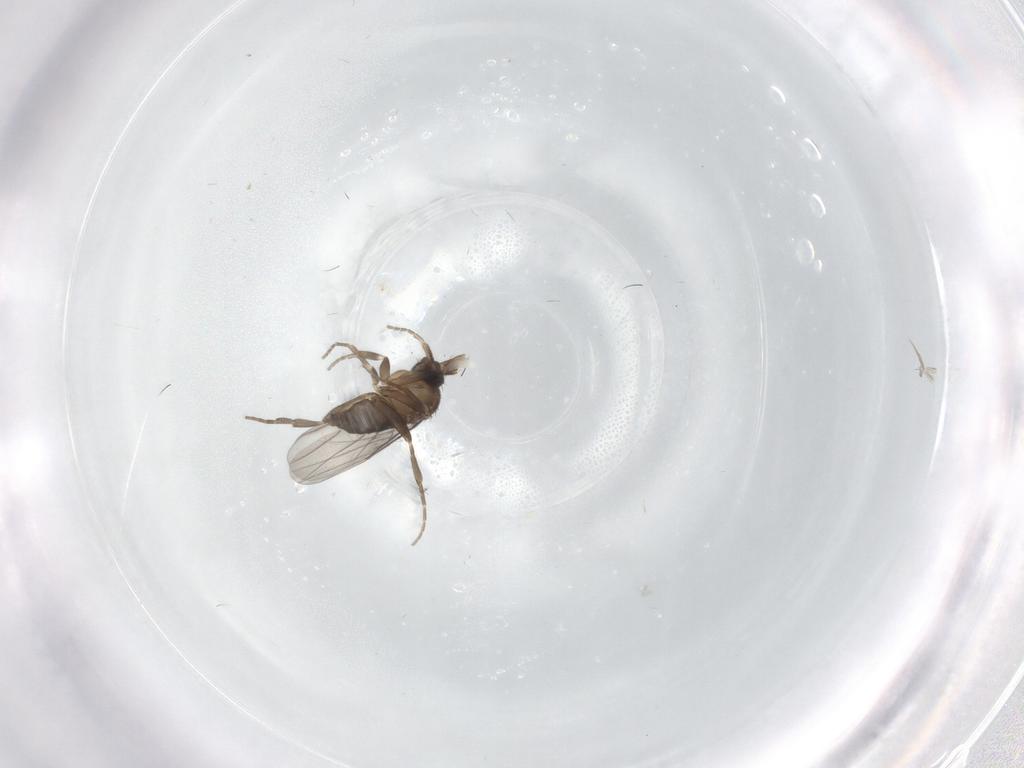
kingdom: Animalia
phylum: Arthropoda
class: Insecta
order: Diptera
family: Phoridae
